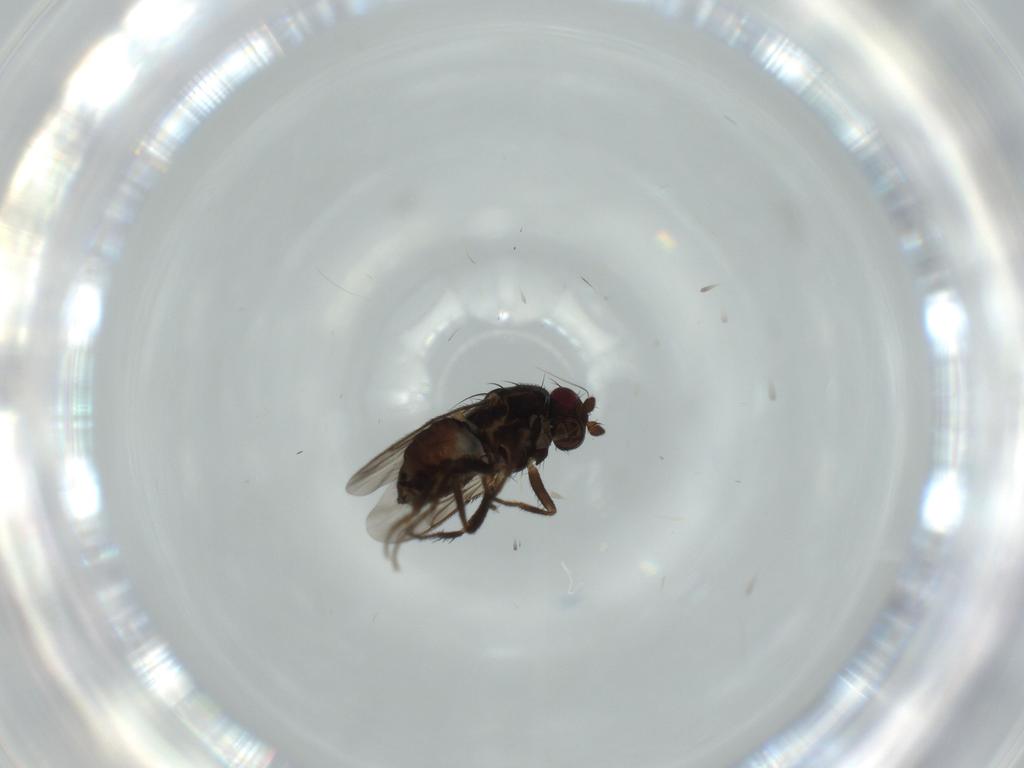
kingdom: Animalia
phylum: Arthropoda
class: Insecta
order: Diptera
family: Sphaeroceridae
